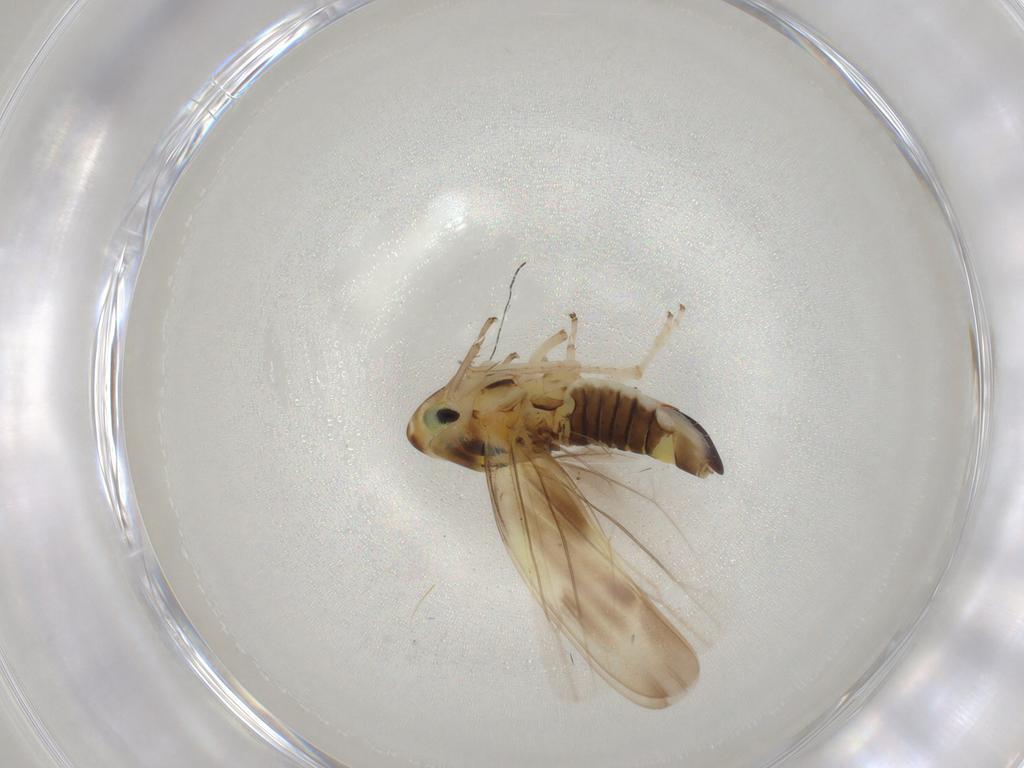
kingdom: Animalia
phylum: Arthropoda
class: Insecta
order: Hemiptera
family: Cicadellidae
